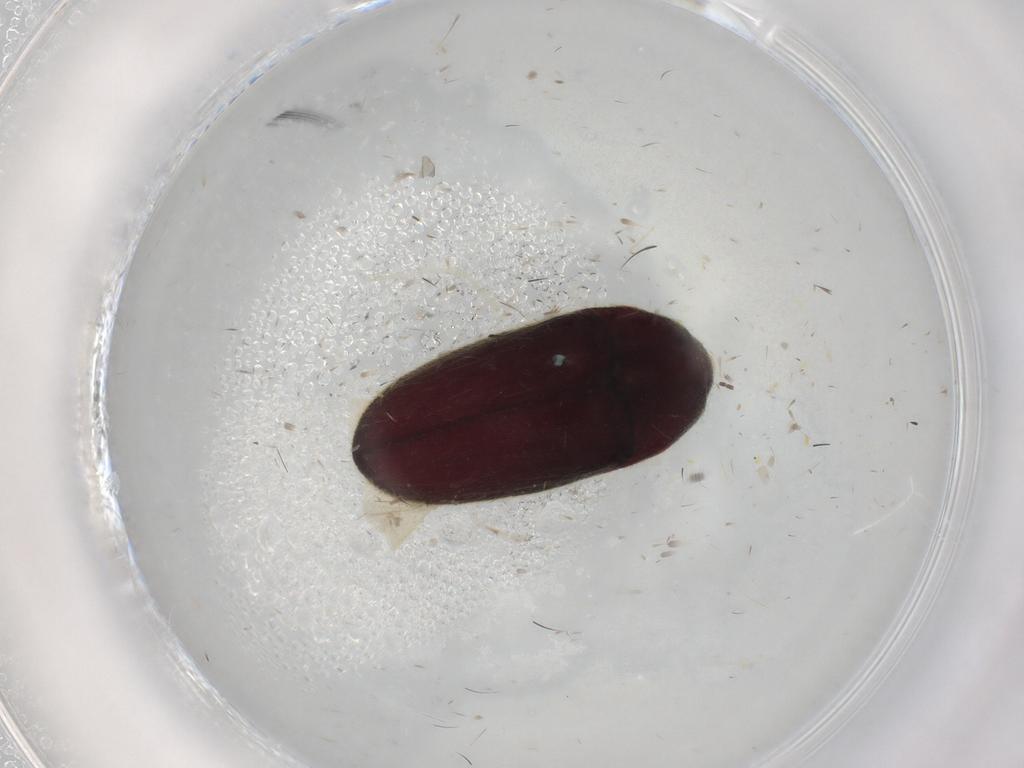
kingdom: Animalia
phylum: Arthropoda
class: Insecta
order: Coleoptera
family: Throscidae
